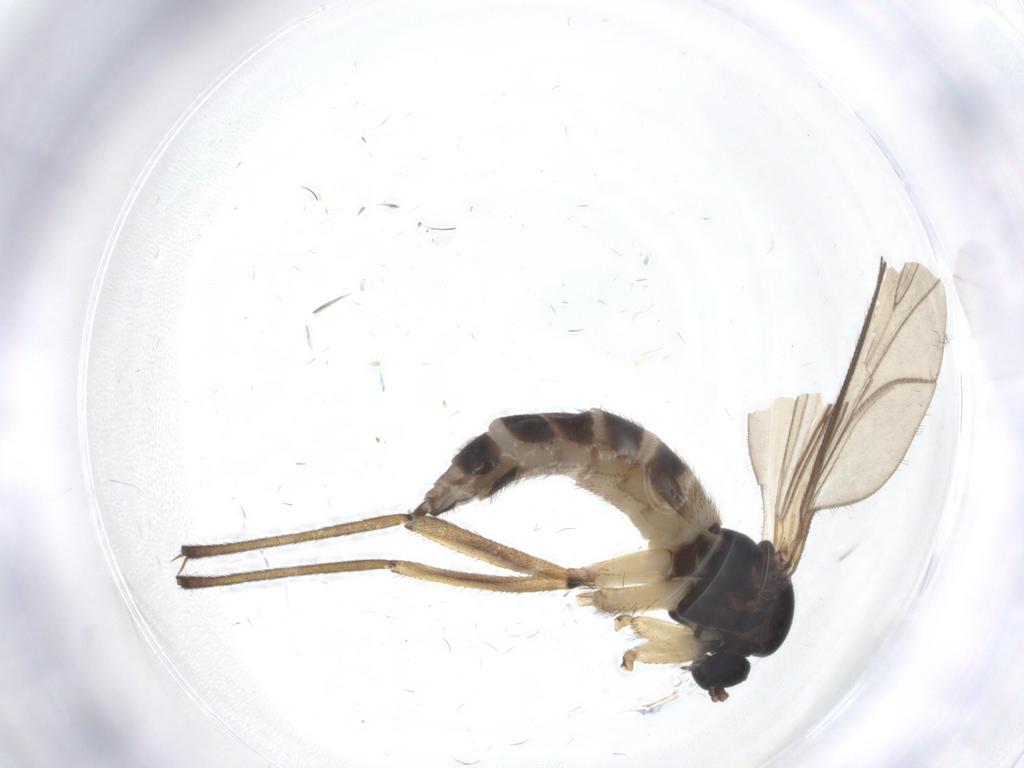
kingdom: Animalia
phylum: Arthropoda
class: Insecta
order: Diptera
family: Sciaridae
